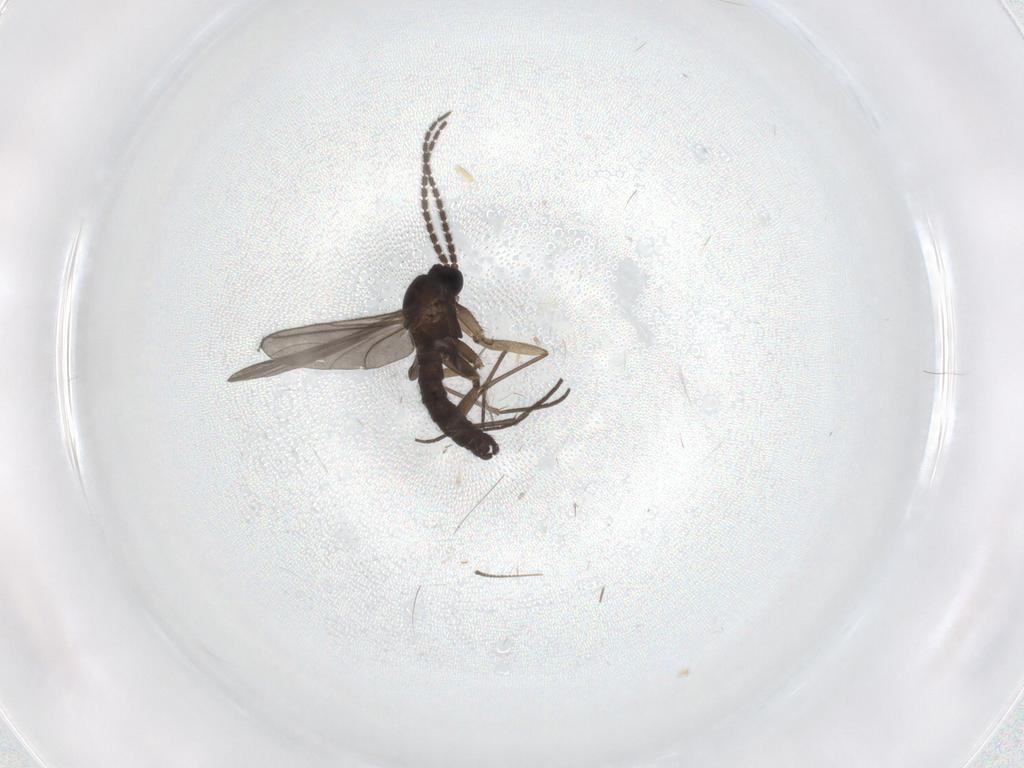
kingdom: Animalia
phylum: Arthropoda
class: Insecta
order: Diptera
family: Sciaridae
